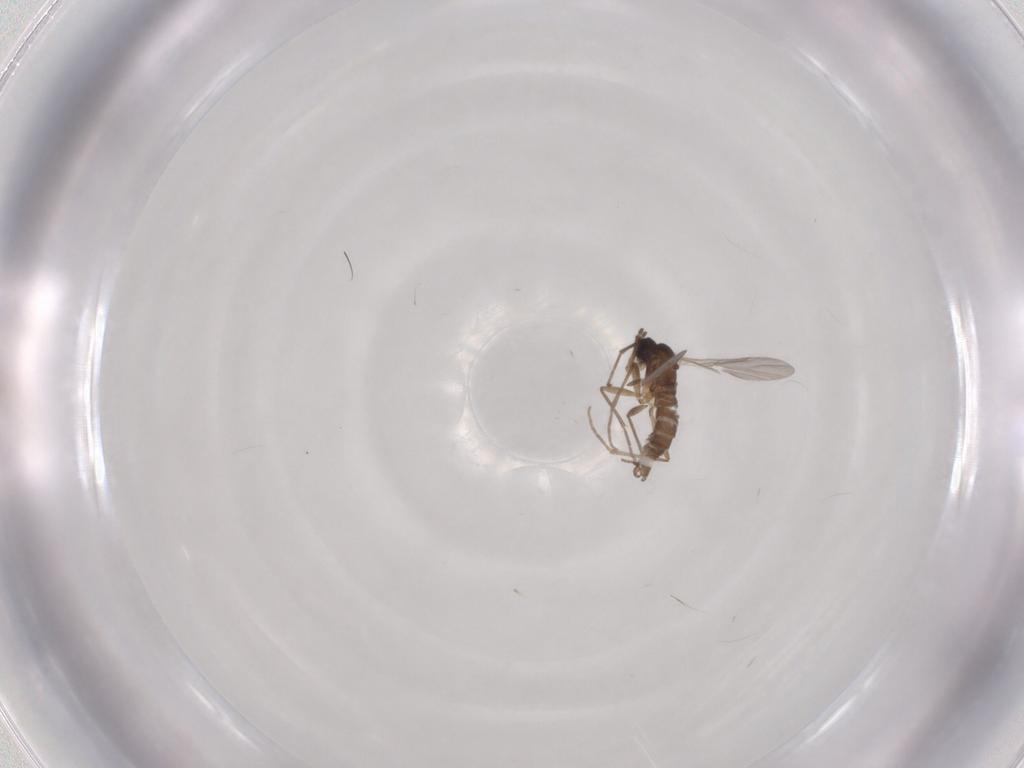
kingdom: Animalia
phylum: Arthropoda
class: Insecta
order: Diptera
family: Sciaridae
